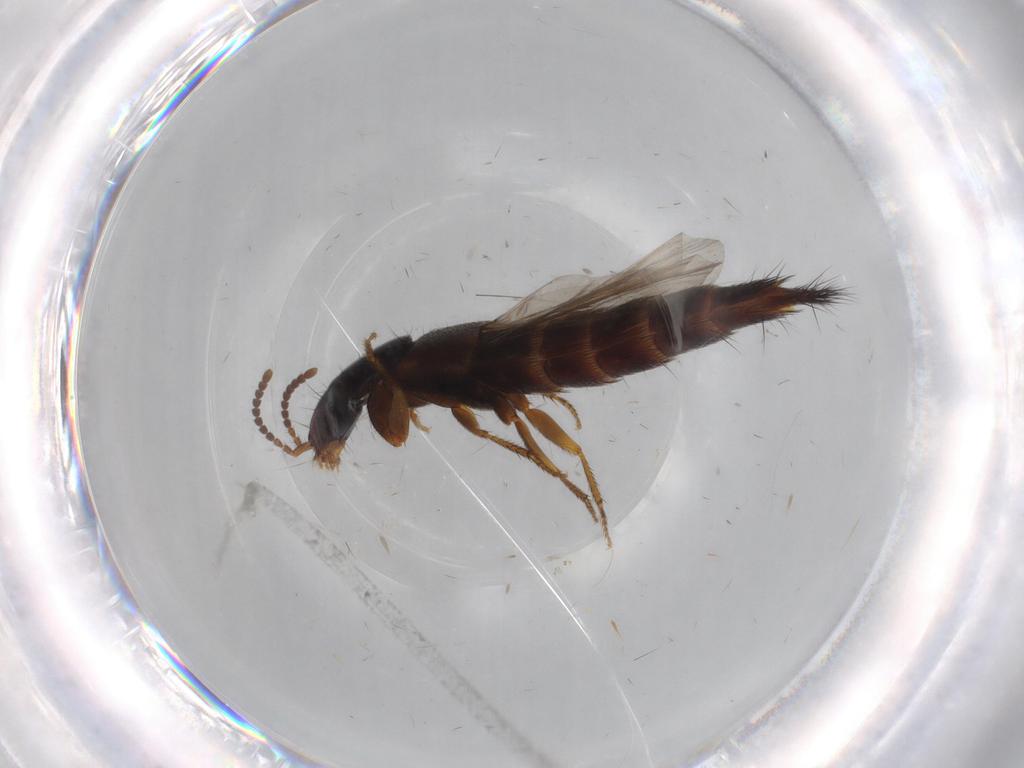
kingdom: Animalia
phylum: Arthropoda
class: Insecta
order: Coleoptera
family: Staphylinidae
